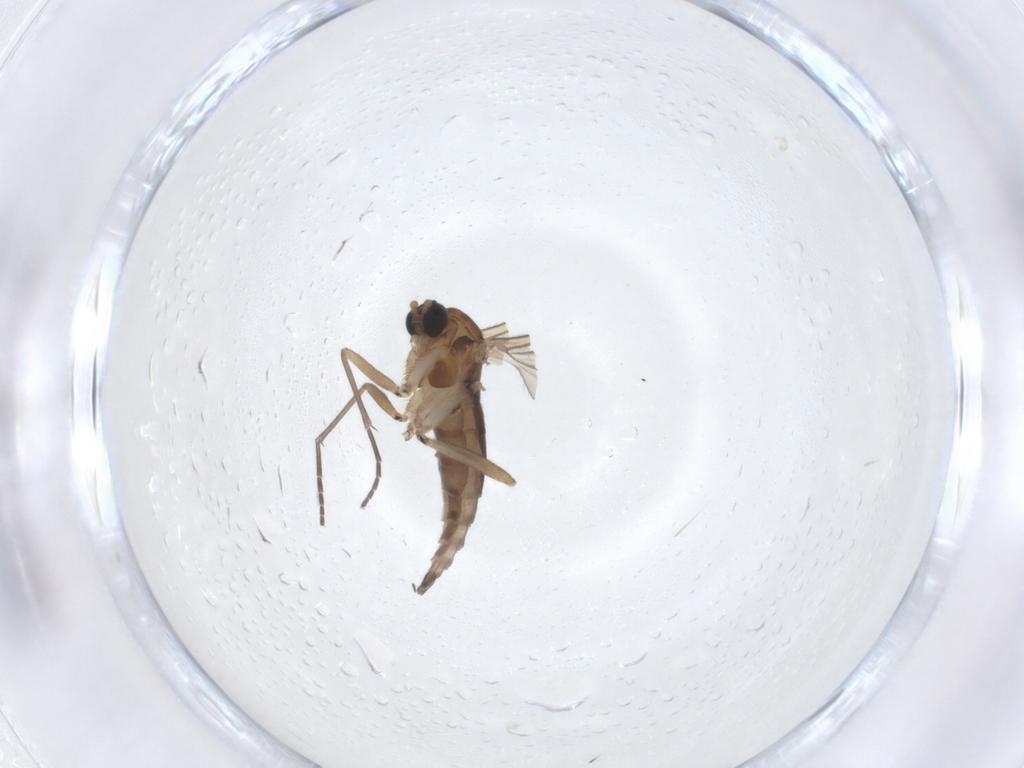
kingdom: Animalia
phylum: Arthropoda
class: Insecta
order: Diptera
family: Sciaridae
